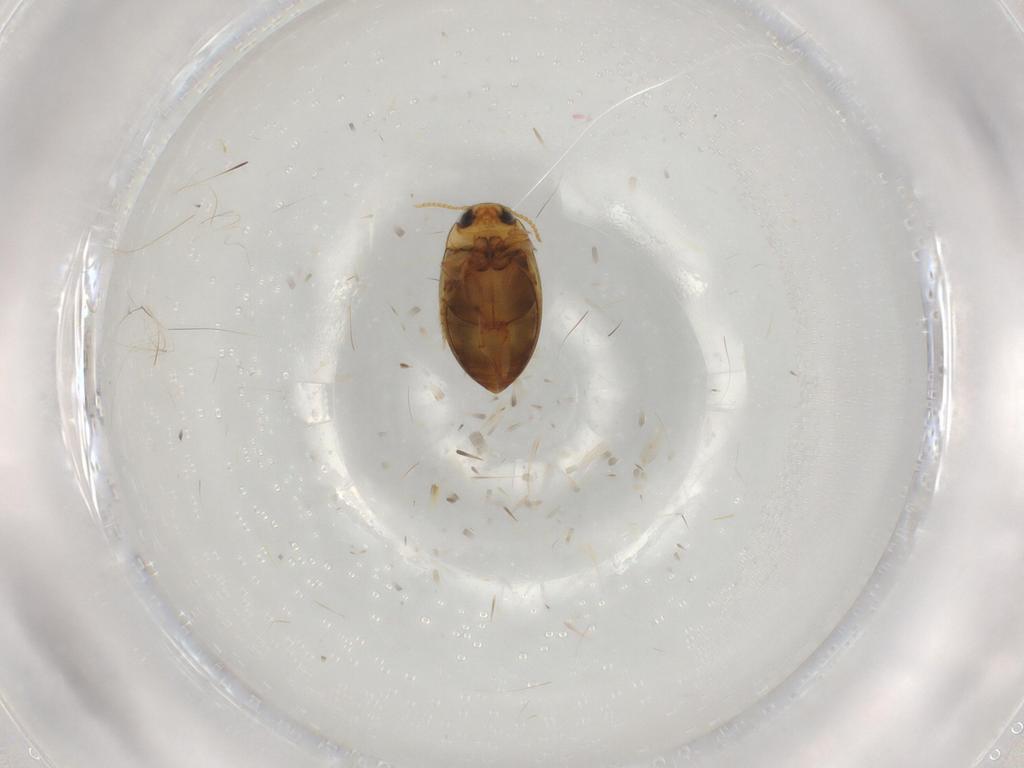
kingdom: Animalia
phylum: Arthropoda
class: Insecta
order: Coleoptera
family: Dytiscidae
